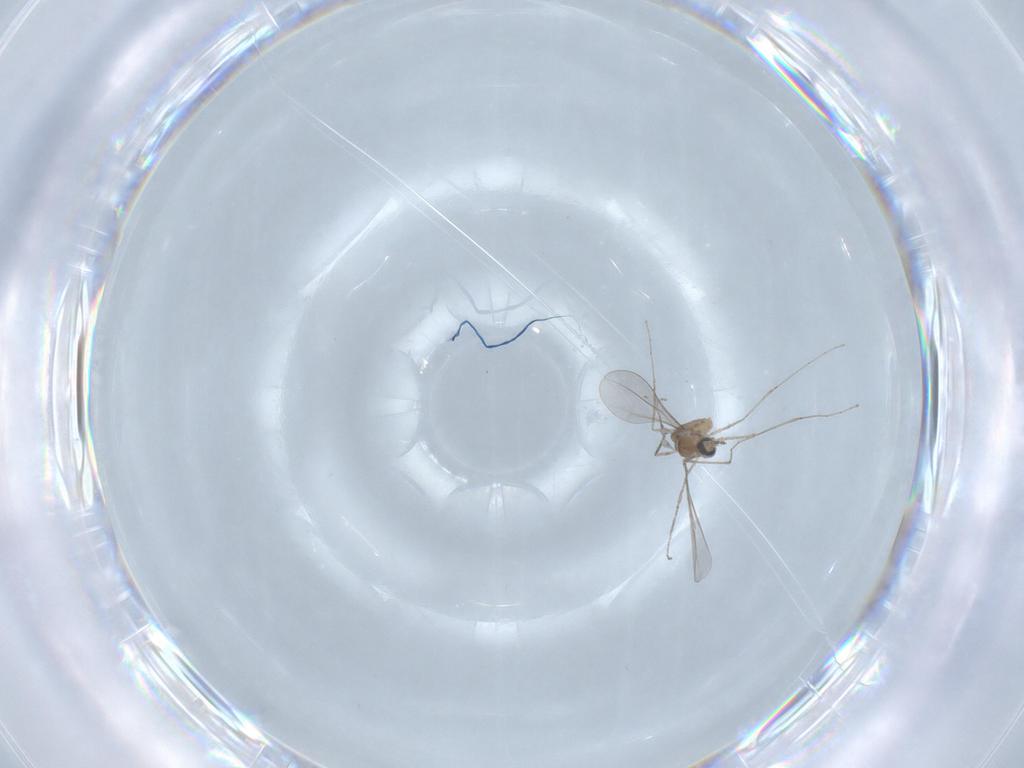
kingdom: Animalia
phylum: Arthropoda
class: Insecta
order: Diptera
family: Cecidomyiidae
